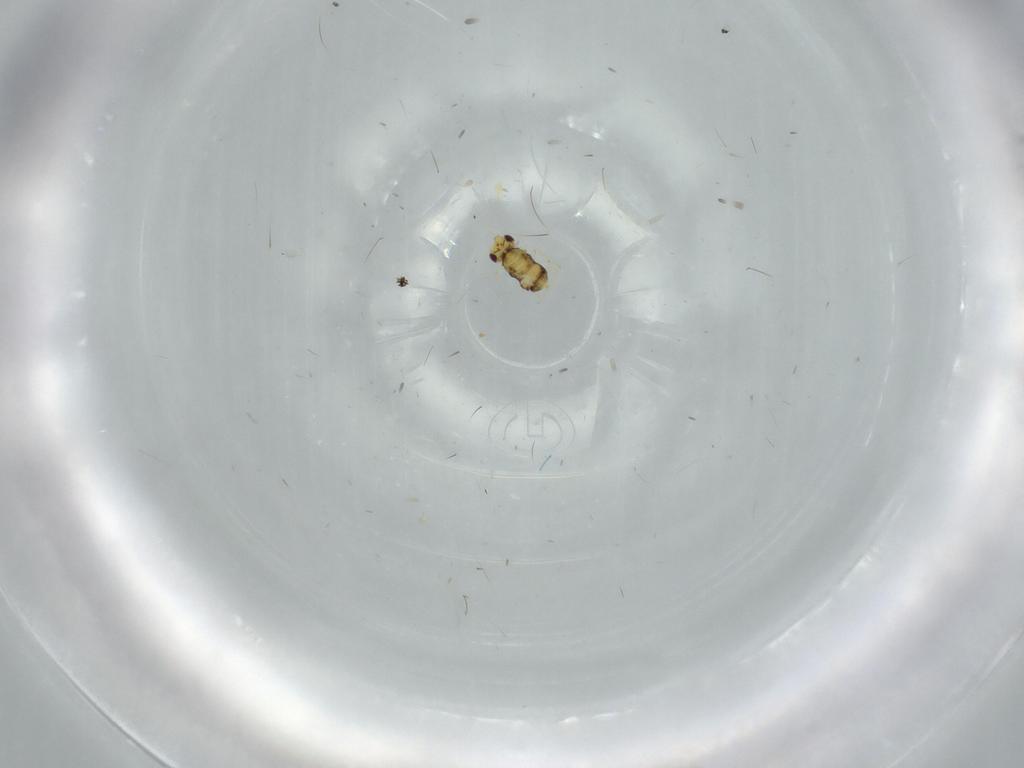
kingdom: Animalia
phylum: Arthropoda
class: Insecta
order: Hymenoptera
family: Aphelinidae
